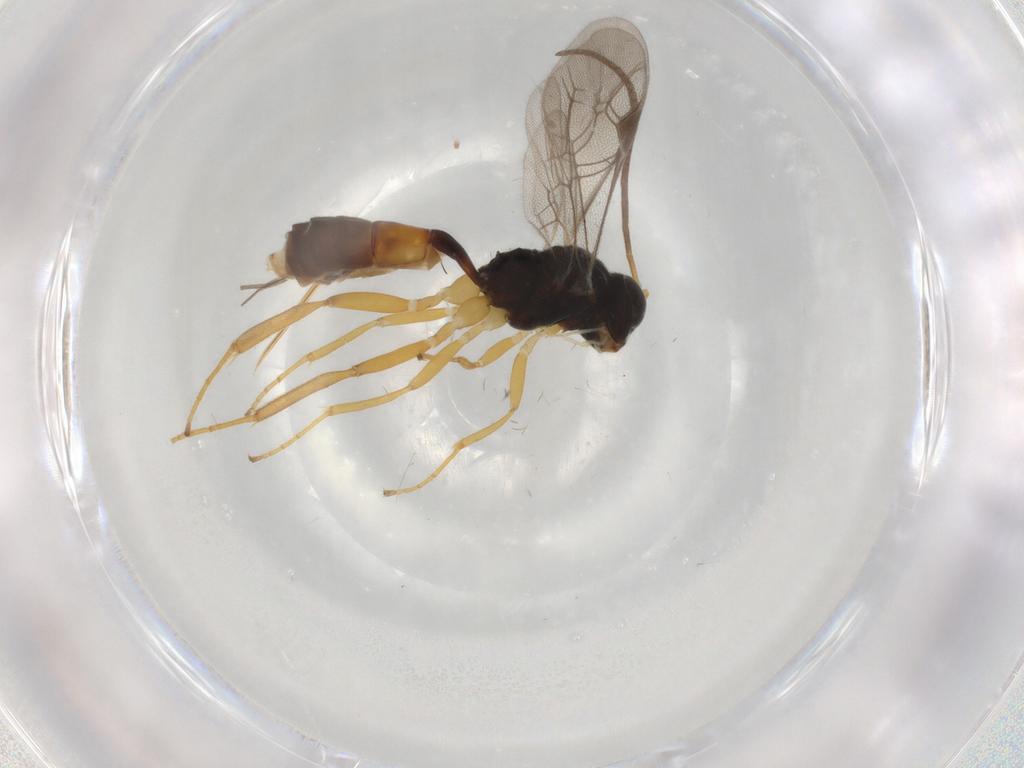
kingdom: Animalia
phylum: Arthropoda
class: Insecta
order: Hymenoptera
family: Ichneumonidae
